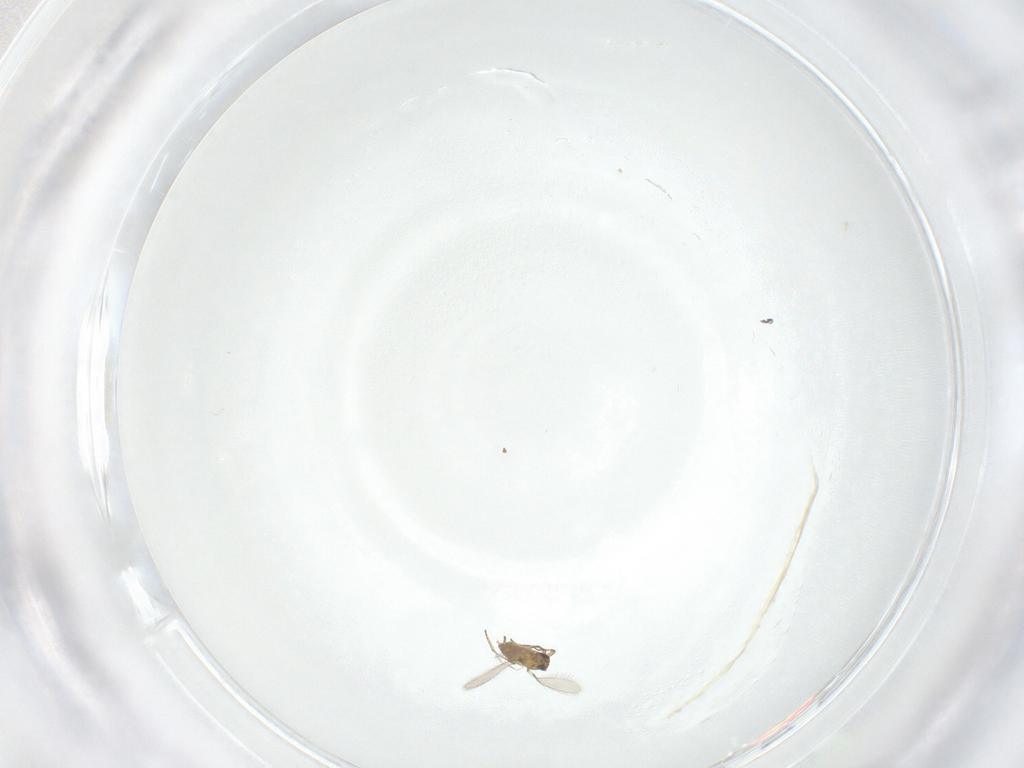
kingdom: Animalia
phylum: Arthropoda
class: Insecta
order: Hymenoptera
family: Mymaridae
